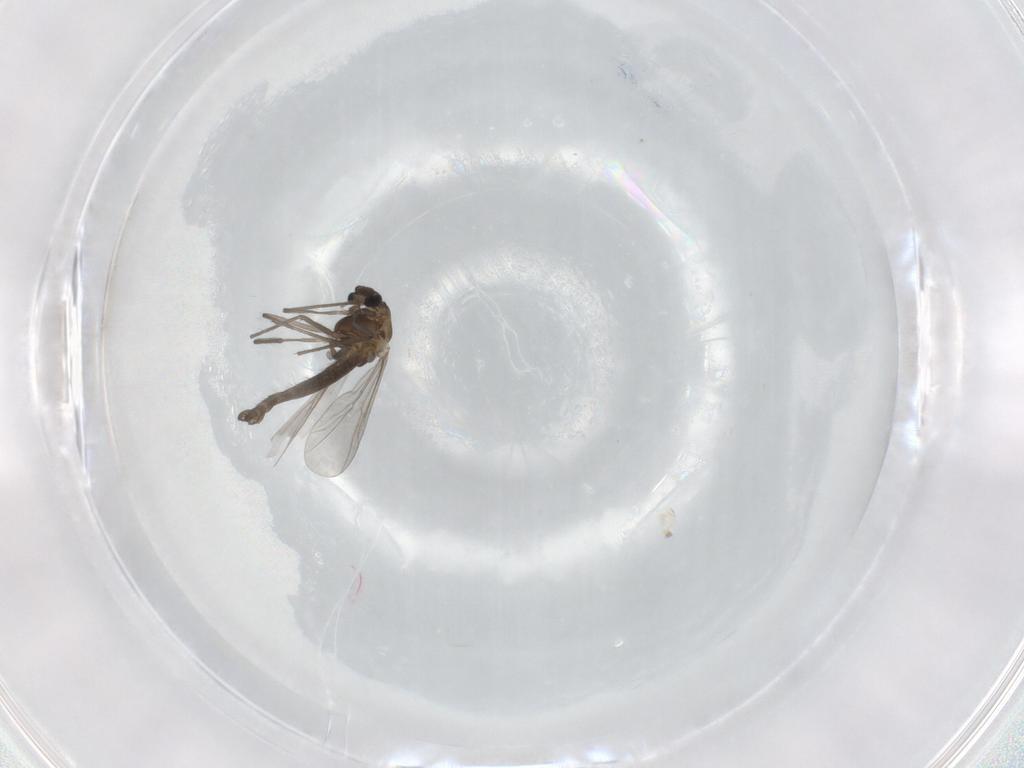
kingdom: Animalia
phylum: Arthropoda
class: Insecta
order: Diptera
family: Chironomidae
